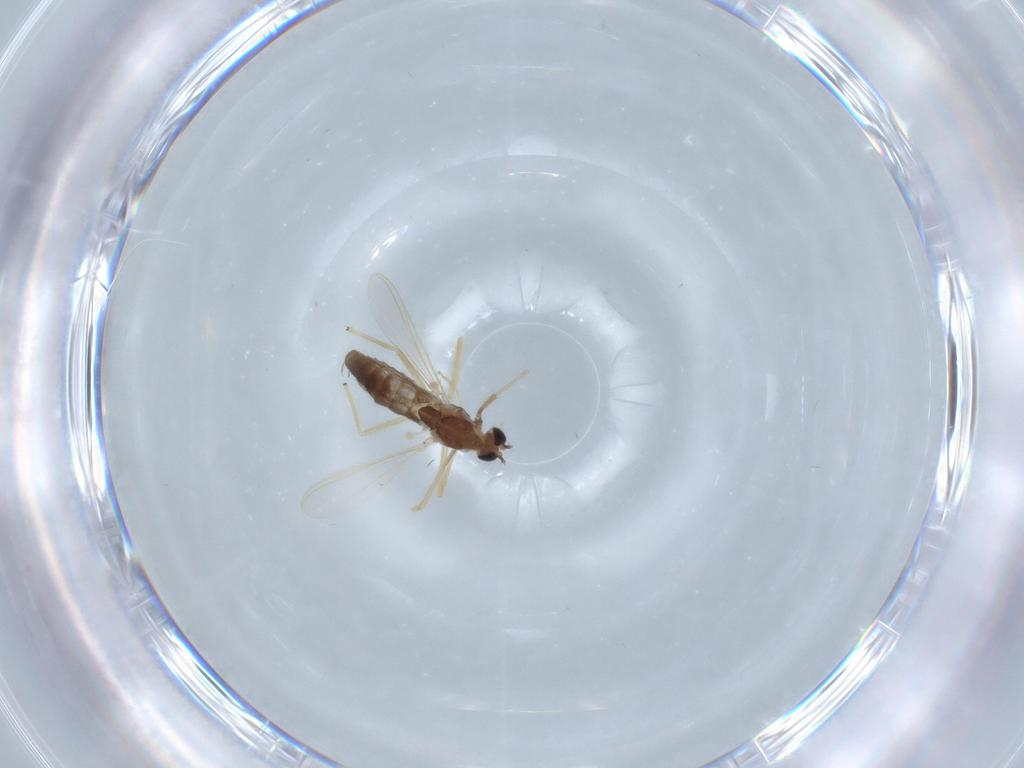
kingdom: Animalia
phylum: Arthropoda
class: Insecta
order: Diptera
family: Chironomidae
